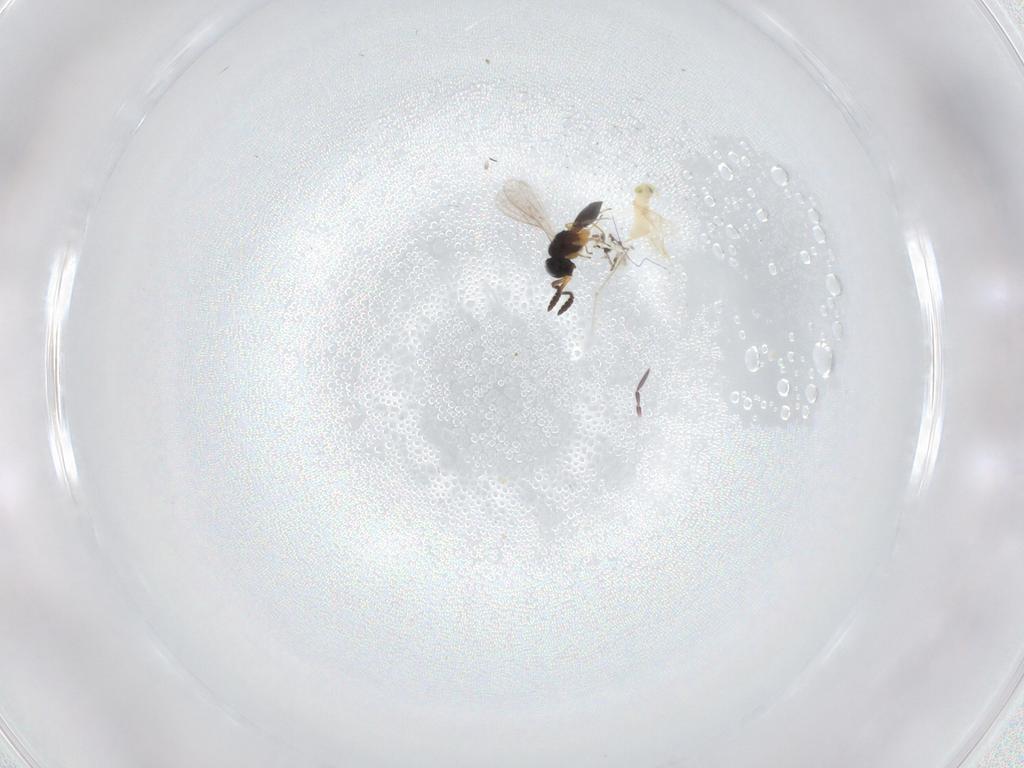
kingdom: Animalia
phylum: Arthropoda
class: Insecta
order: Hymenoptera
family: Scelionidae
